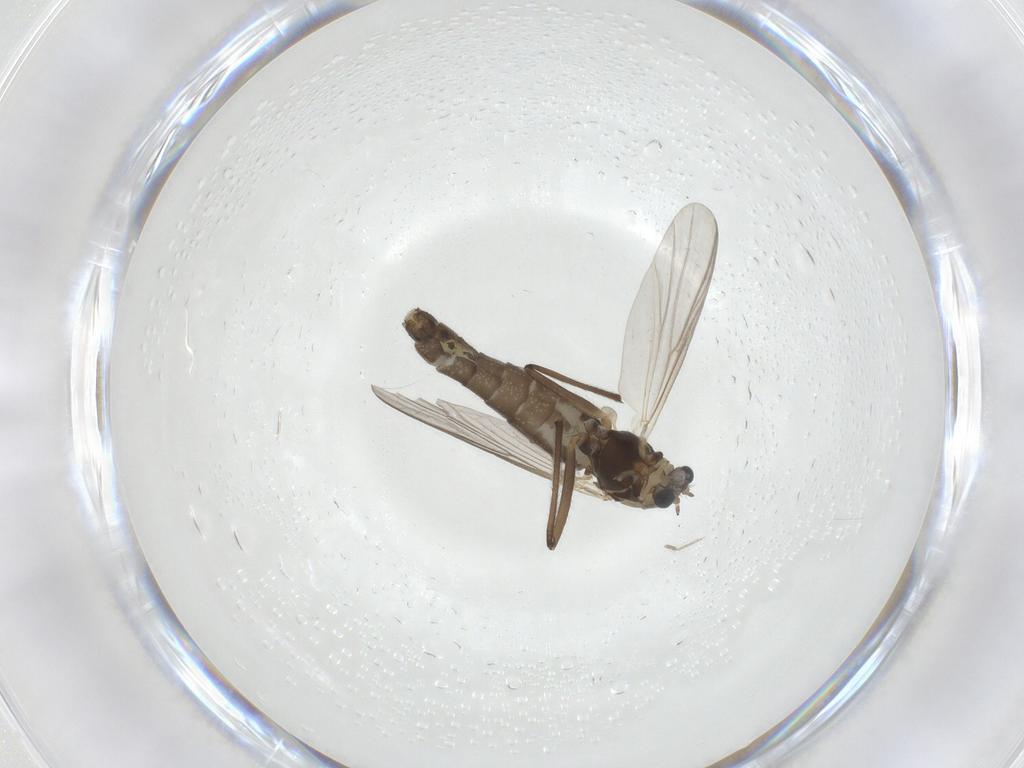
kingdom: Animalia
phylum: Arthropoda
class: Insecta
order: Diptera
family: Chironomidae
